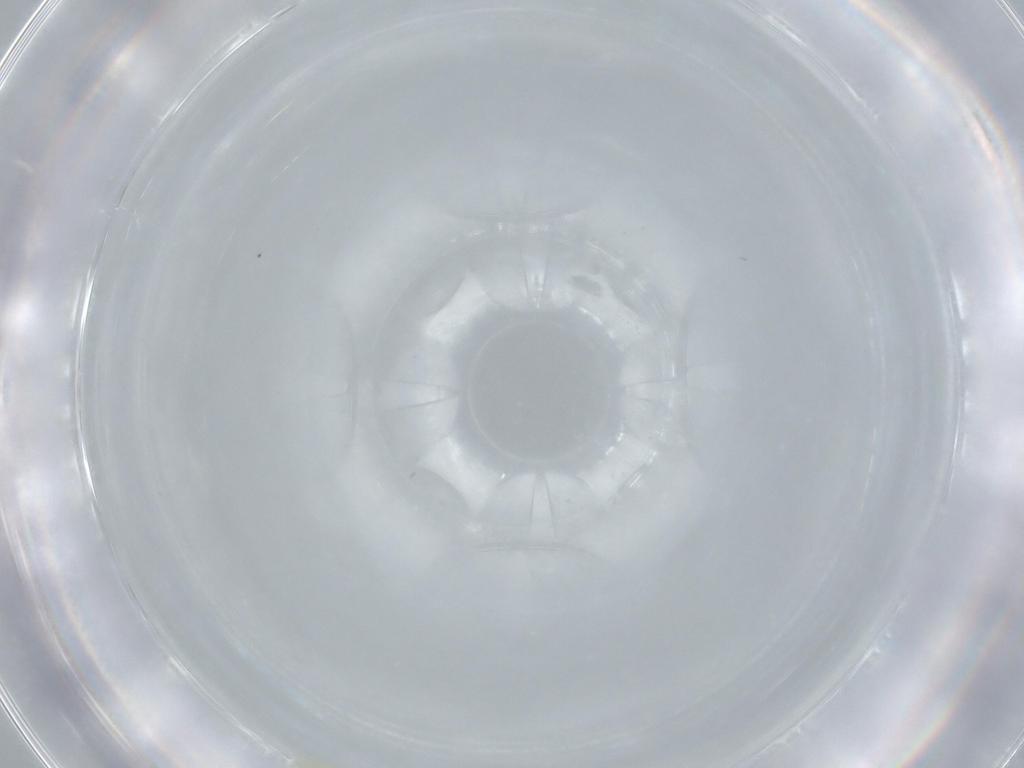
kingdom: Animalia
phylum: Arthropoda
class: Insecta
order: Hemiptera
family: Aleyrodidae
